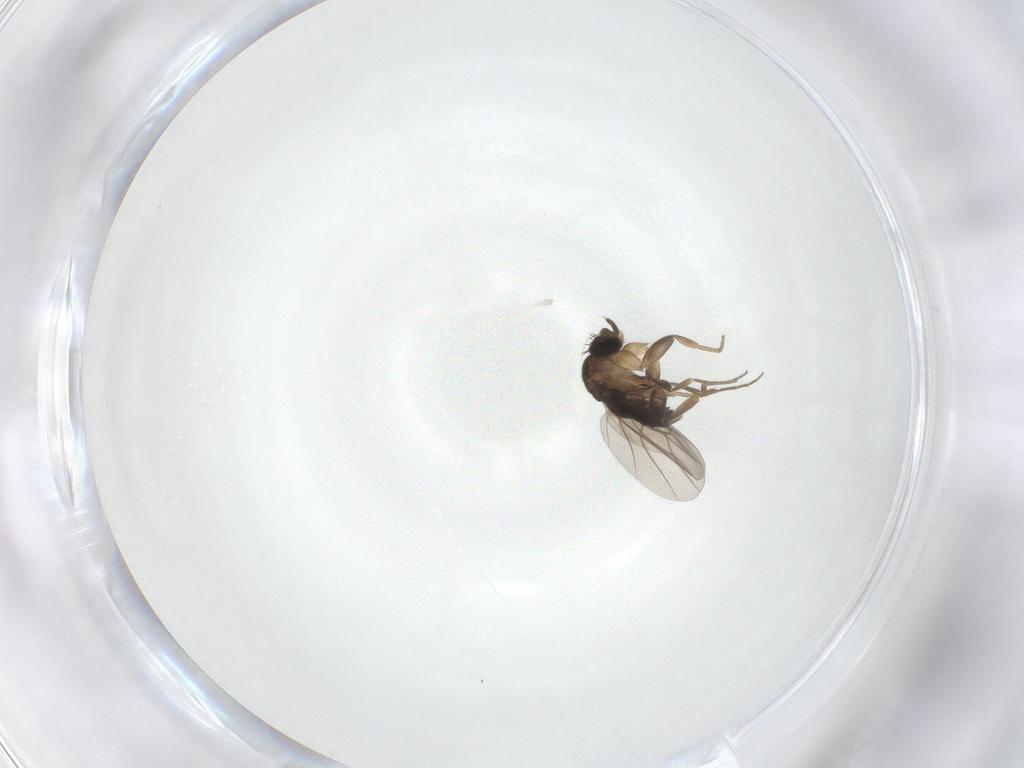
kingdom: Animalia
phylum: Arthropoda
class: Insecta
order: Diptera
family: Phoridae
